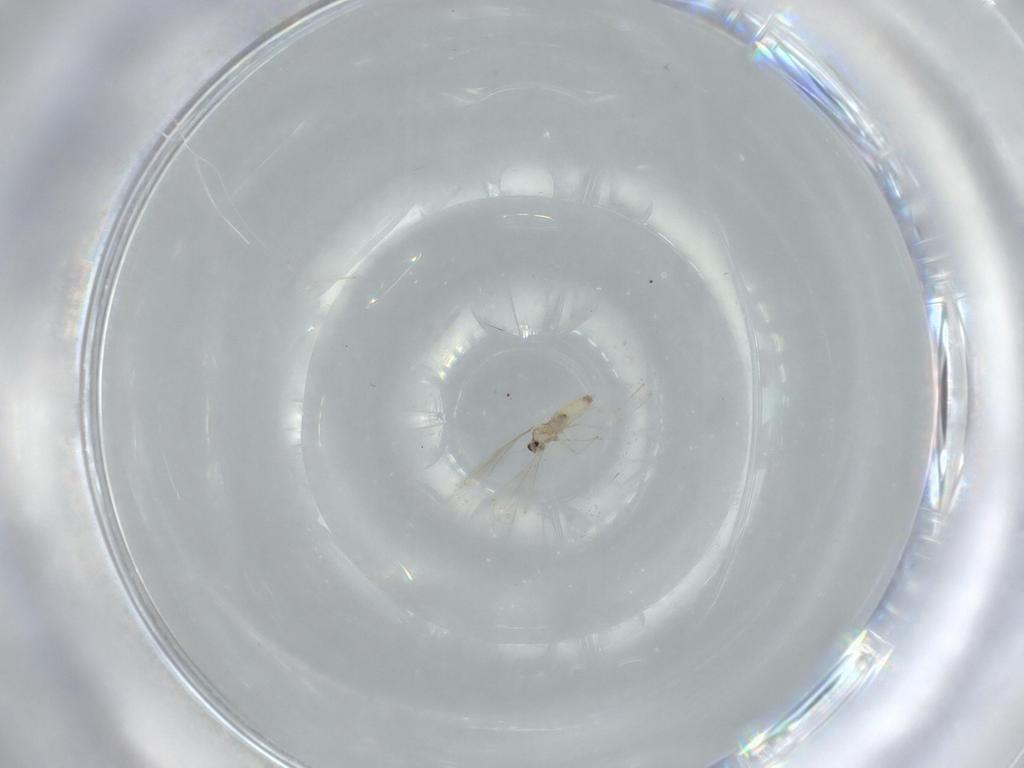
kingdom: Animalia
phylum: Arthropoda
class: Insecta
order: Diptera
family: Cecidomyiidae
